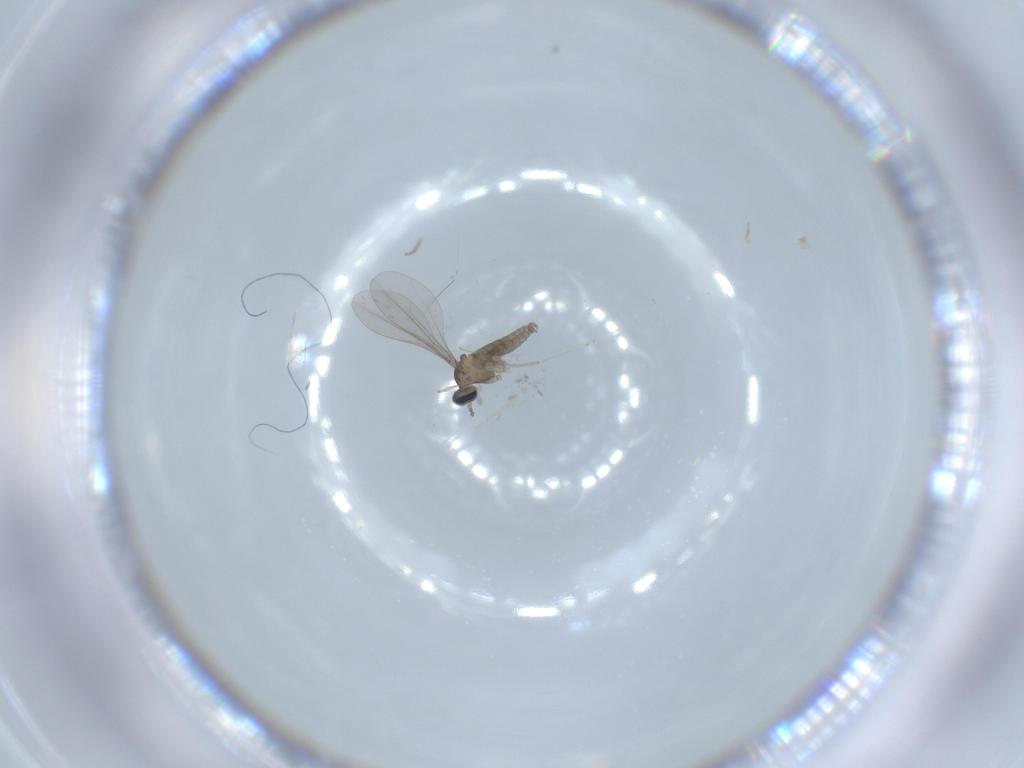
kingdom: Animalia
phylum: Arthropoda
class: Insecta
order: Diptera
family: Cecidomyiidae
